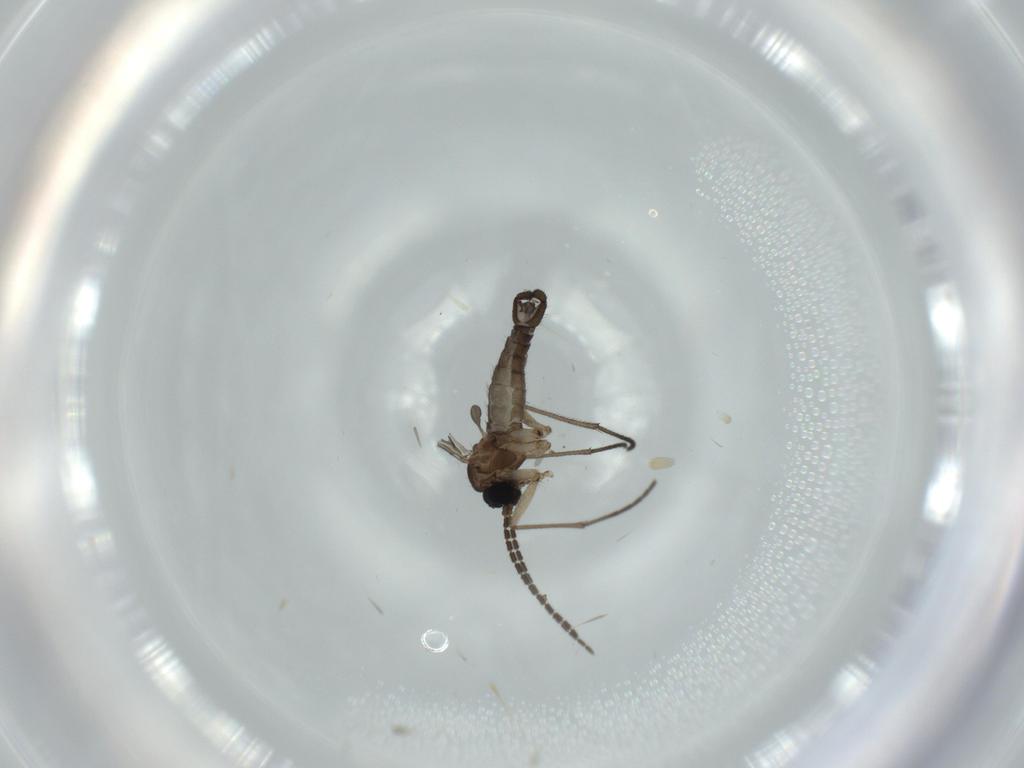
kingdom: Animalia
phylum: Arthropoda
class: Insecta
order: Diptera
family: Sciaridae
